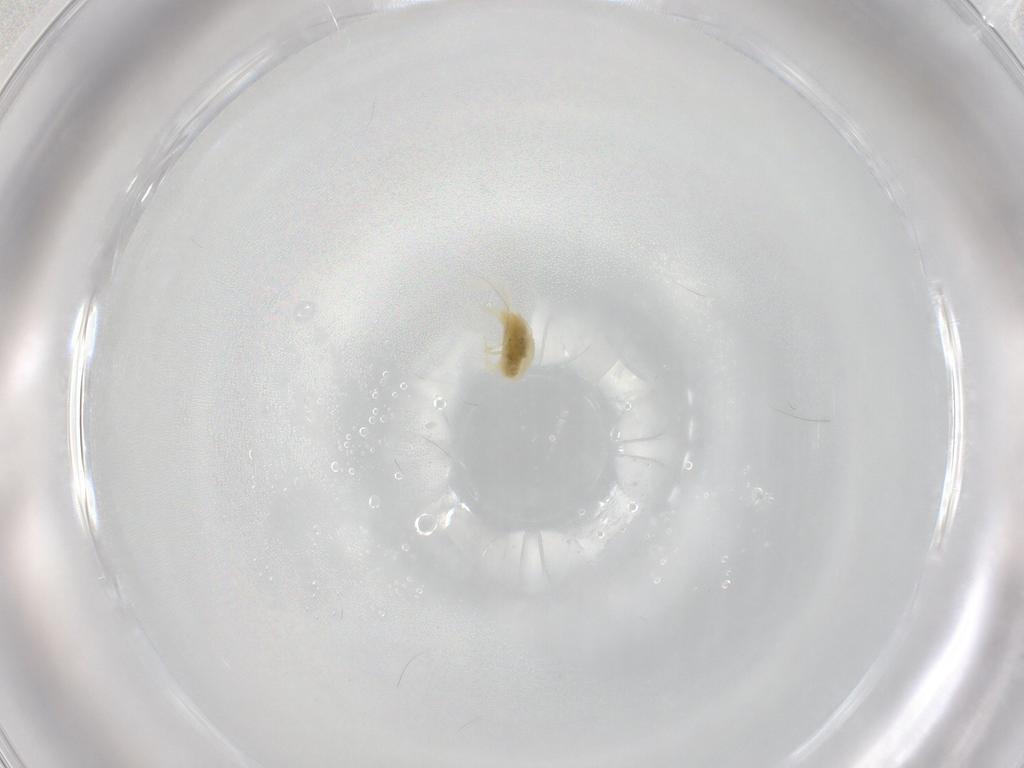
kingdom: Animalia
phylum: Arthropoda
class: Arachnida
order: Trombidiformes
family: Tetranychidae
